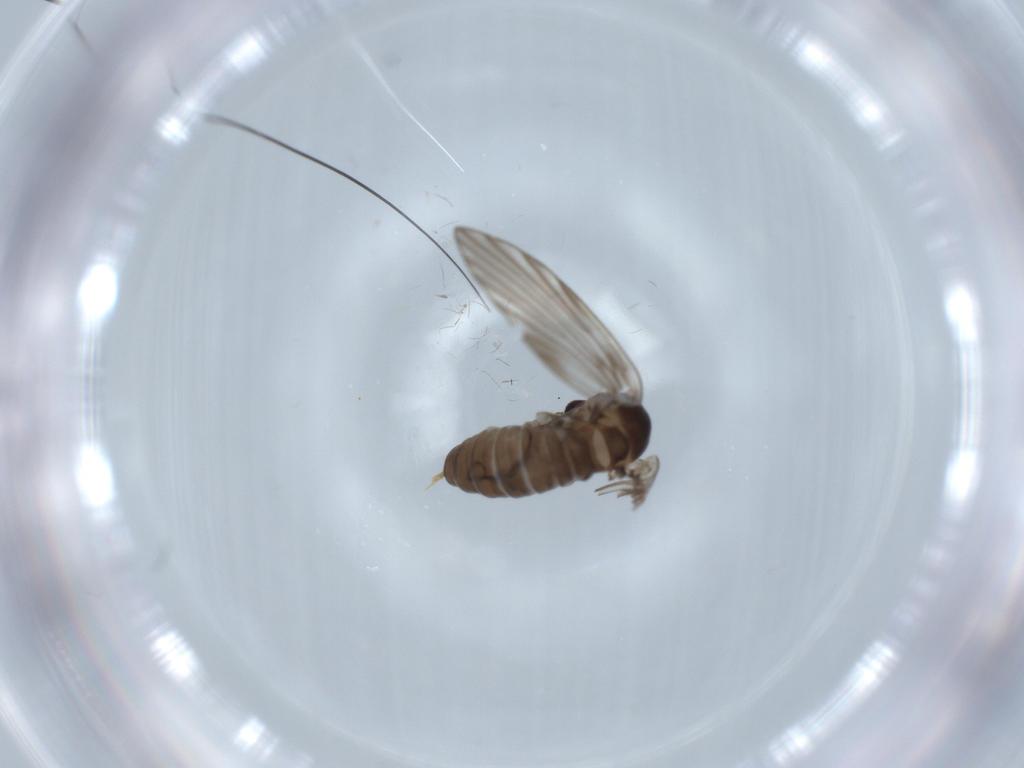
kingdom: Animalia
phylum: Arthropoda
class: Insecta
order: Diptera
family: Psychodidae
